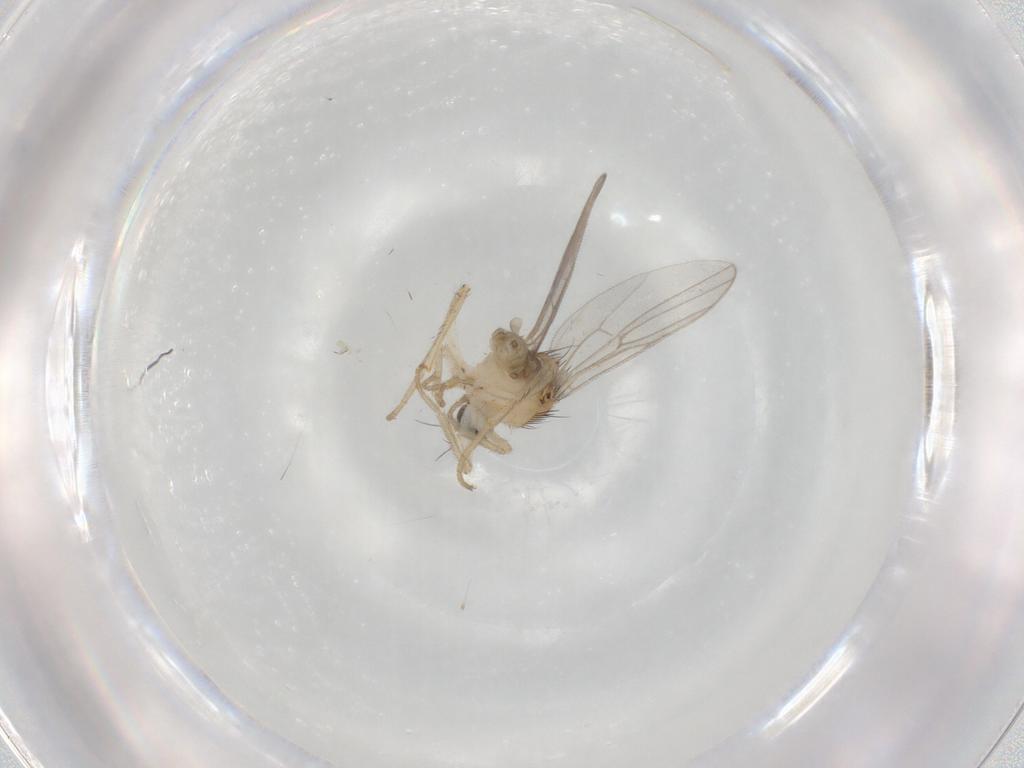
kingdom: Animalia
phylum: Arthropoda
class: Insecta
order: Diptera
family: Hybotidae
